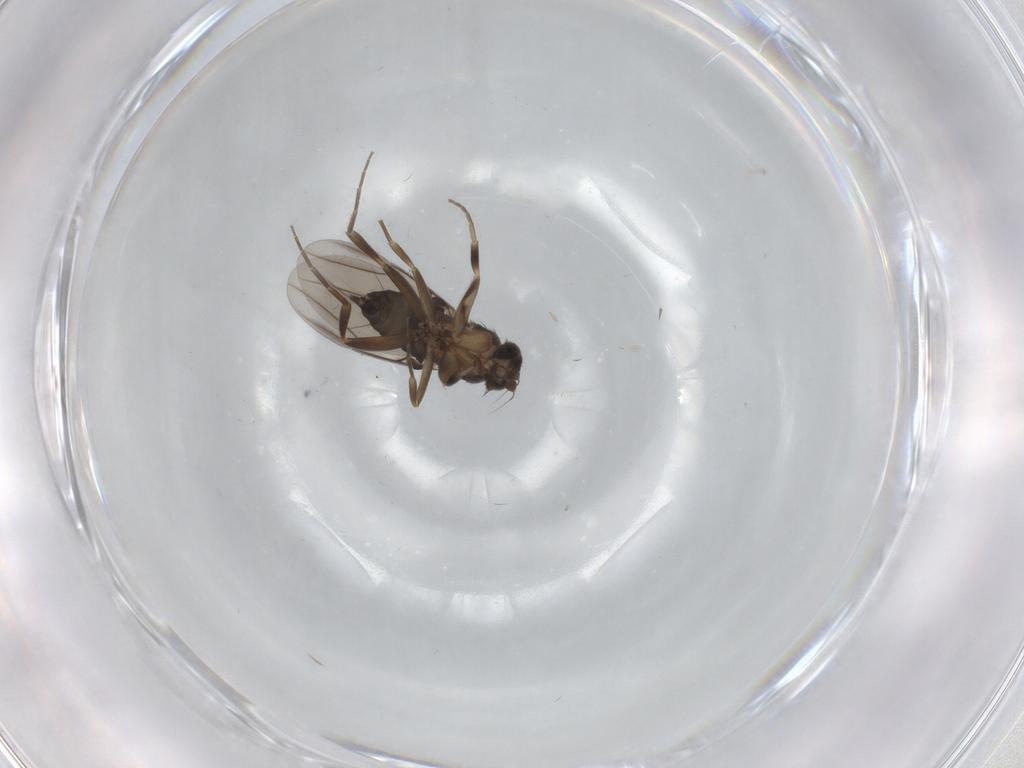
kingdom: Animalia
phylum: Arthropoda
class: Insecta
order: Diptera
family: Phoridae
